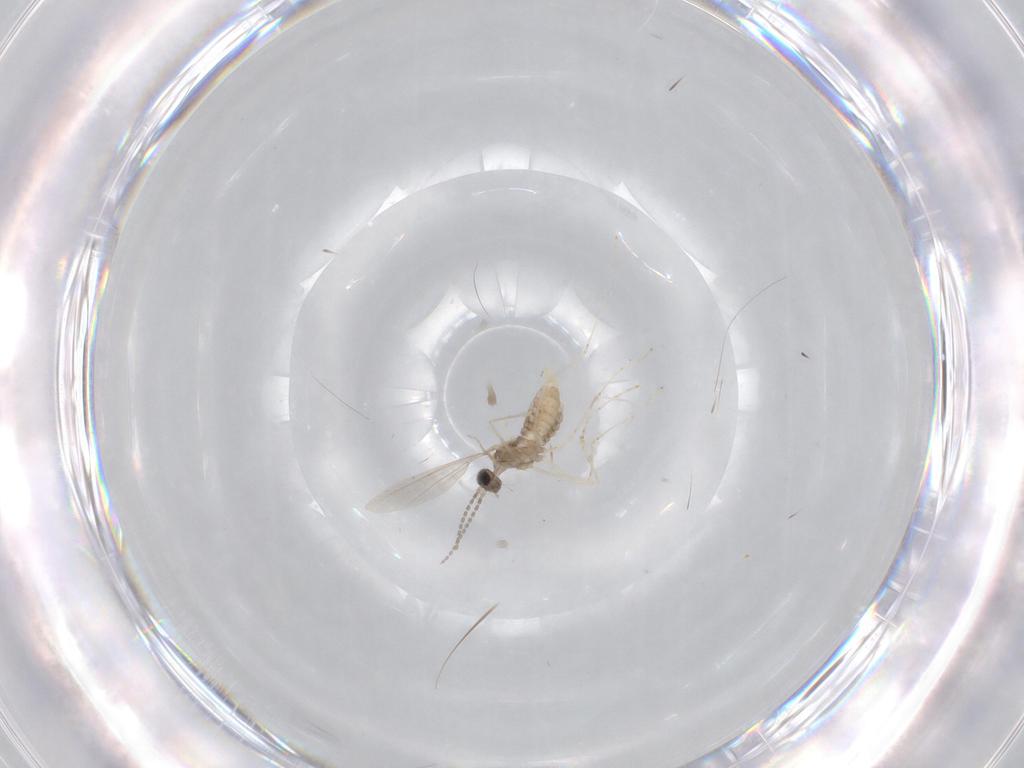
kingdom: Animalia
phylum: Arthropoda
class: Insecta
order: Diptera
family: Cecidomyiidae
